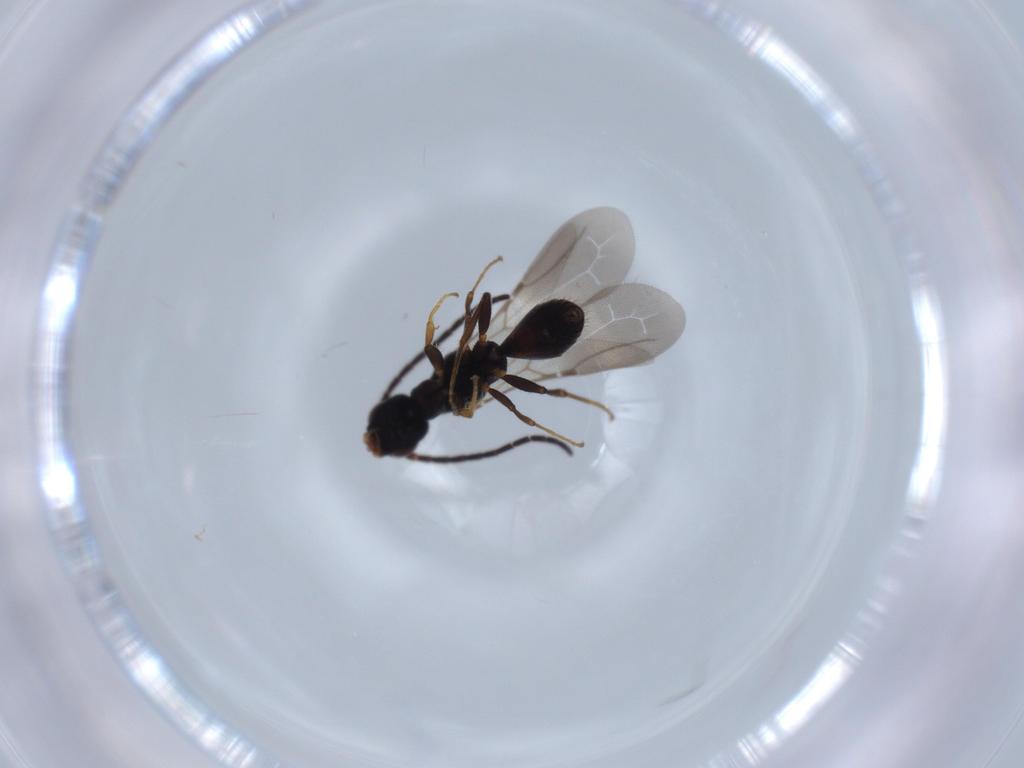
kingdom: Animalia
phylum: Arthropoda
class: Insecta
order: Hymenoptera
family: Bethylidae
